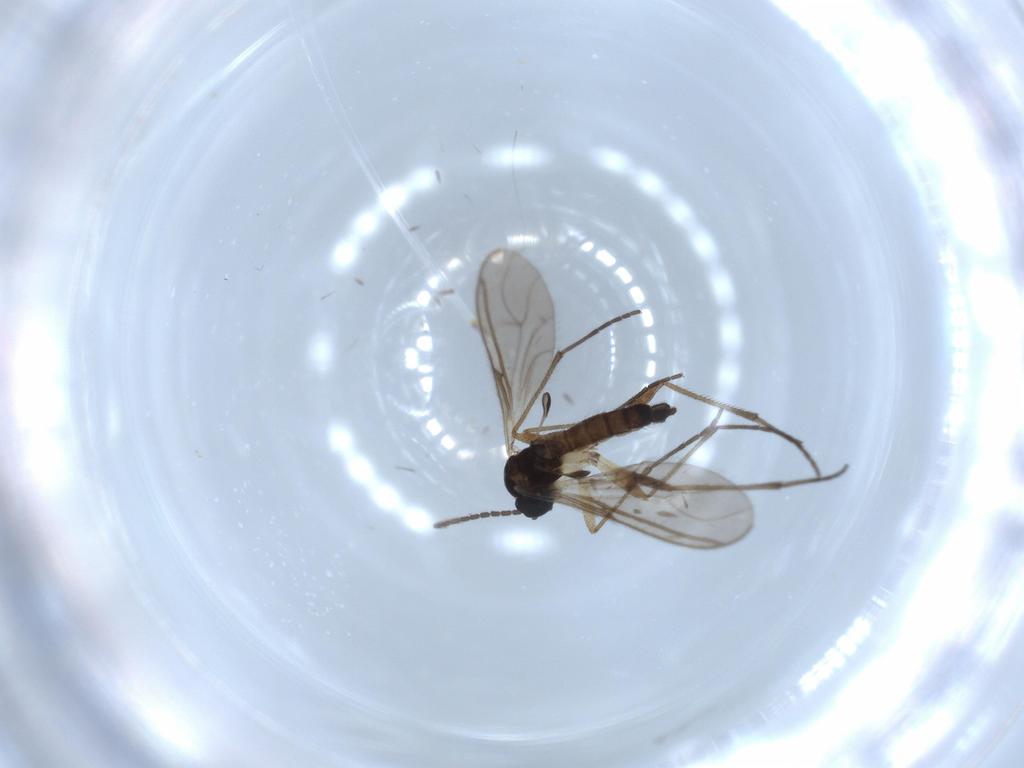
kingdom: Animalia
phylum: Arthropoda
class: Insecta
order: Diptera
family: Sciaridae
